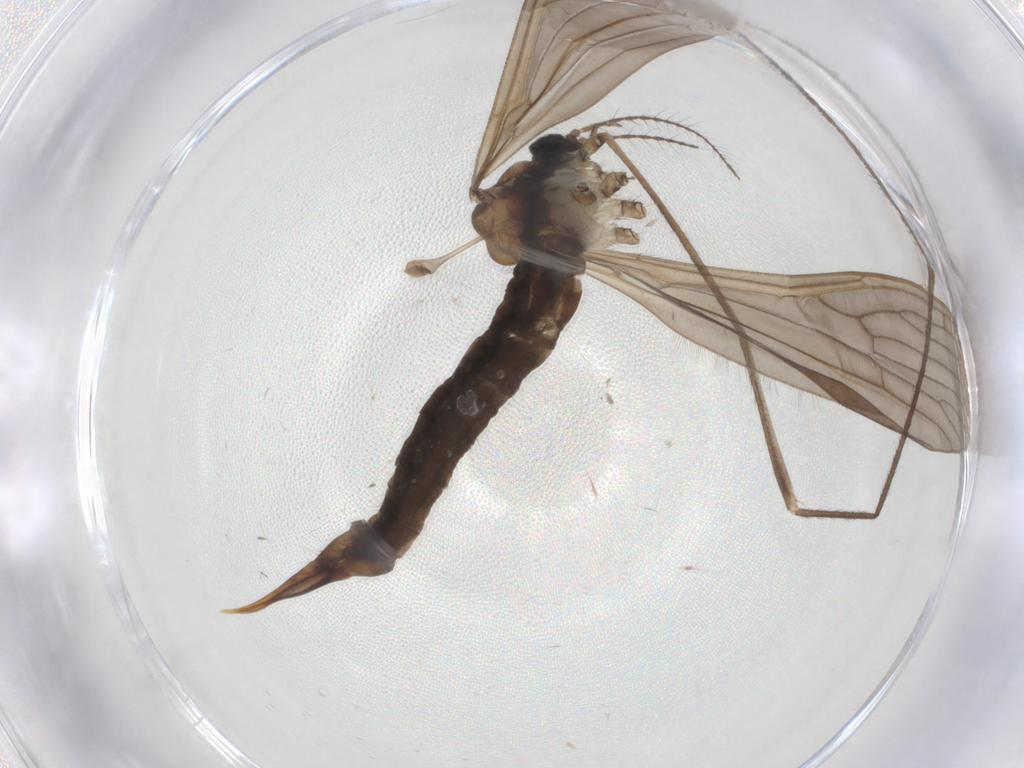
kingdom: Animalia
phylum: Arthropoda
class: Insecta
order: Diptera
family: Limoniidae
